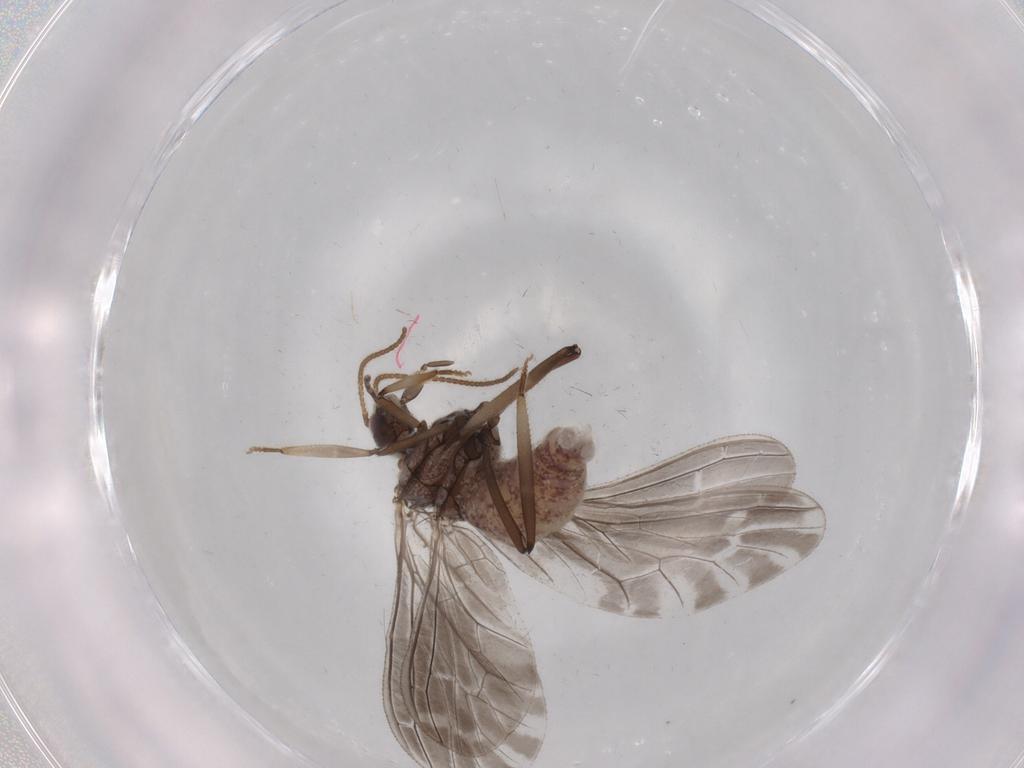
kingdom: Animalia
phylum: Arthropoda
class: Insecta
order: Neuroptera
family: Coniopterygidae
